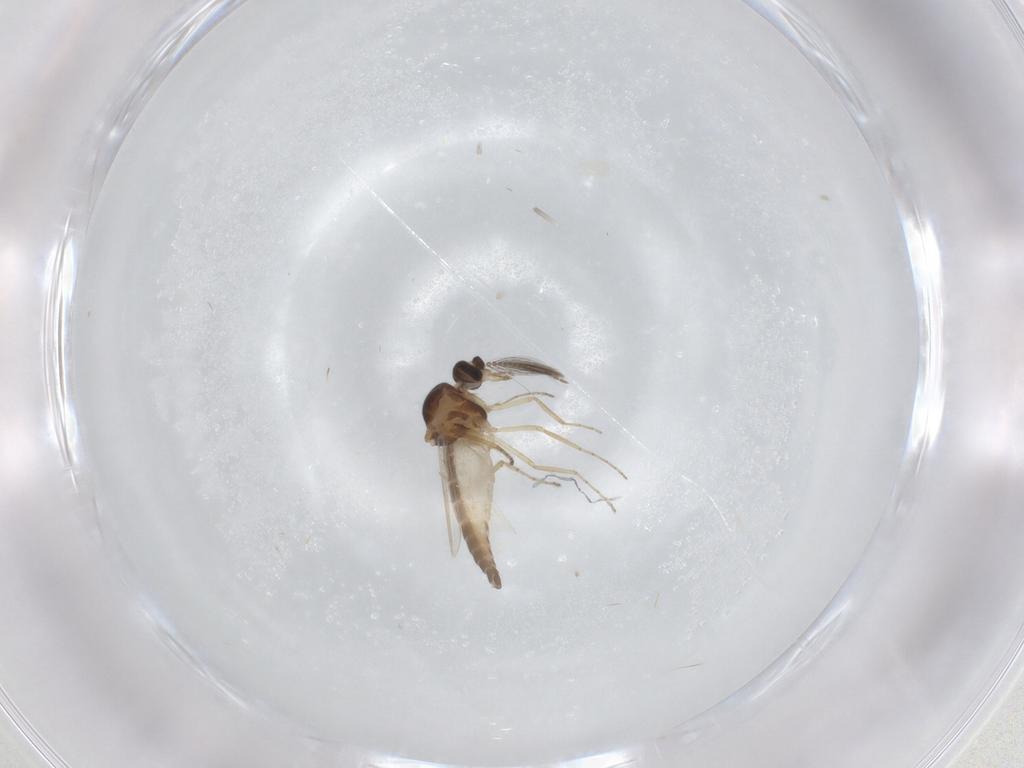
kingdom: Animalia
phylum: Arthropoda
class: Insecta
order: Diptera
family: Ceratopogonidae
